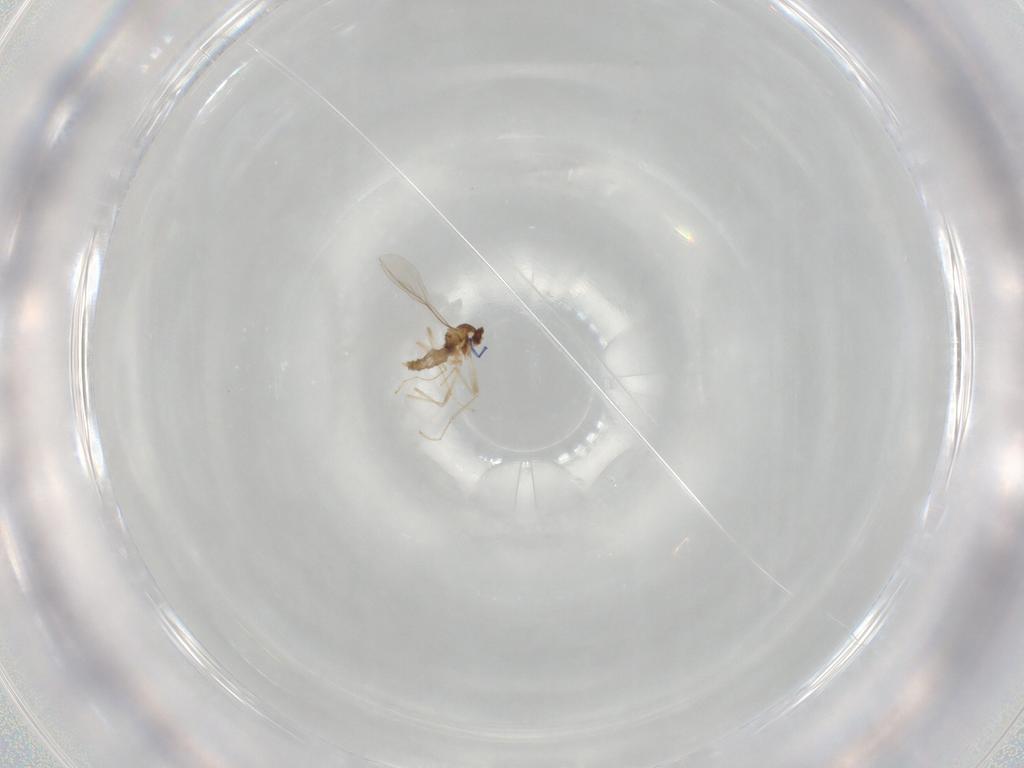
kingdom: Animalia
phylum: Arthropoda
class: Insecta
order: Diptera
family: Cecidomyiidae
